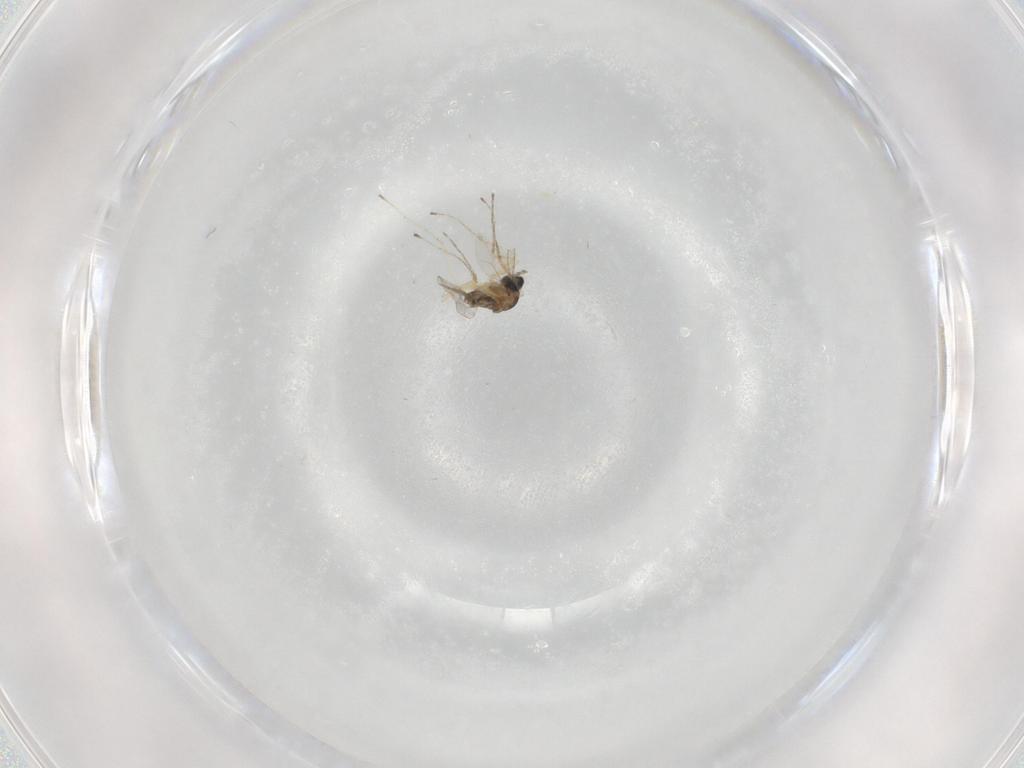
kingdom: Animalia
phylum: Arthropoda
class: Insecta
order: Diptera
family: Cecidomyiidae
